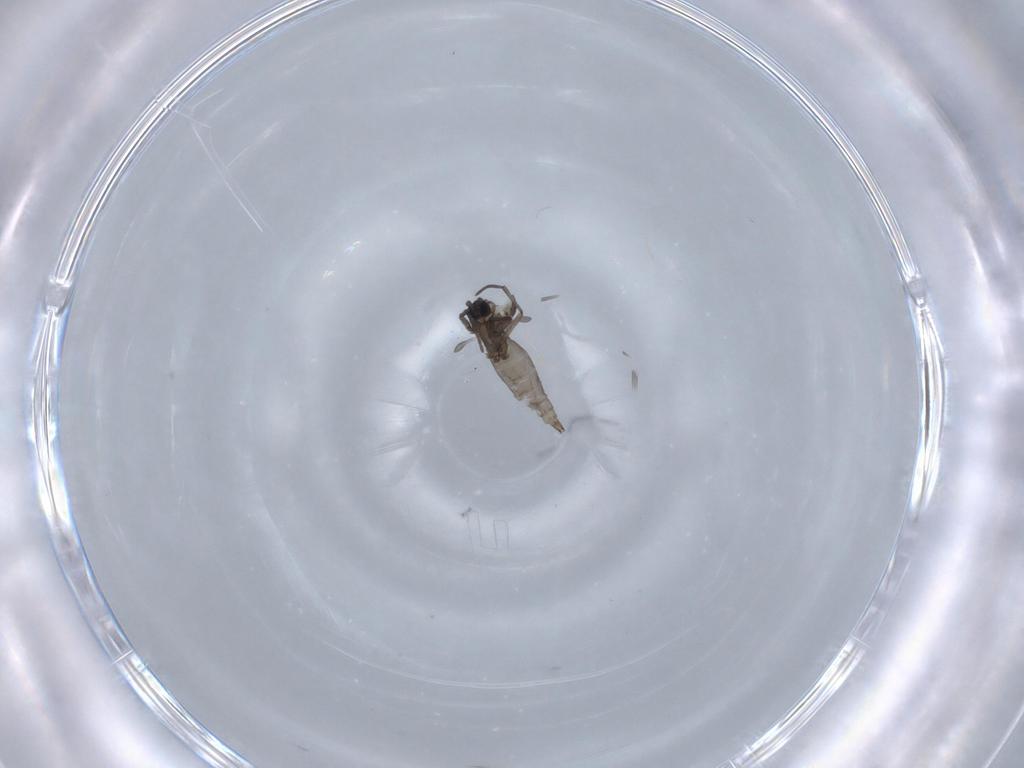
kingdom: Animalia
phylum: Arthropoda
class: Insecta
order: Diptera
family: Sciaridae
